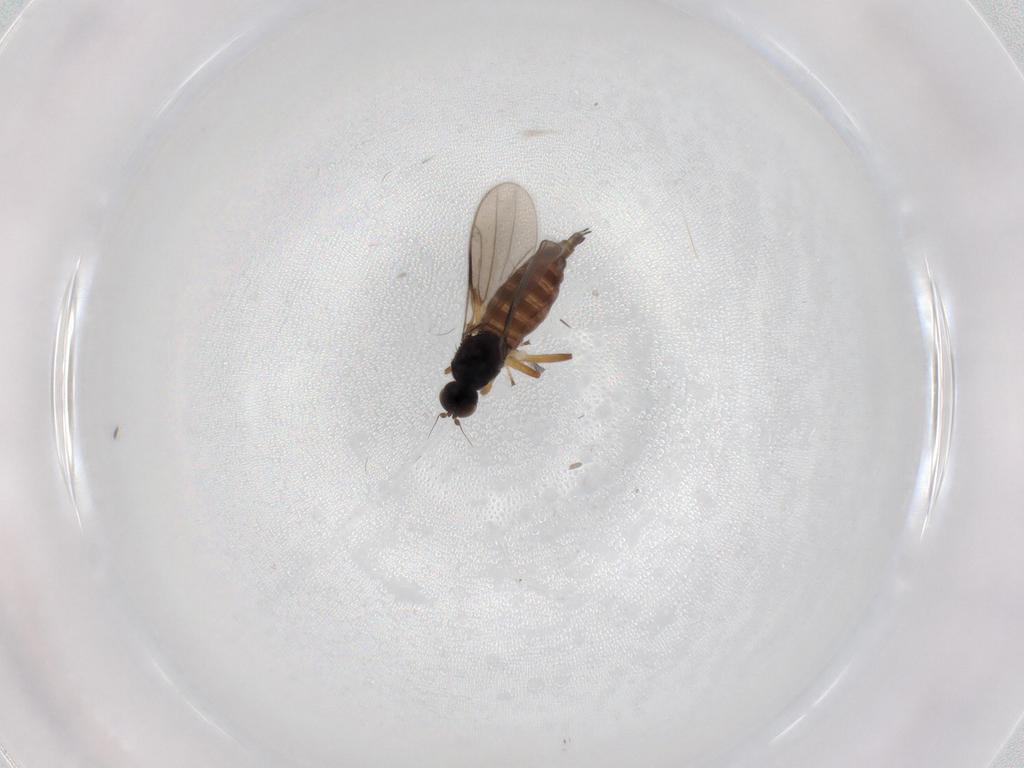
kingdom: Animalia
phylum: Arthropoda
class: Insecta
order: Diptera
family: Hybotidae
